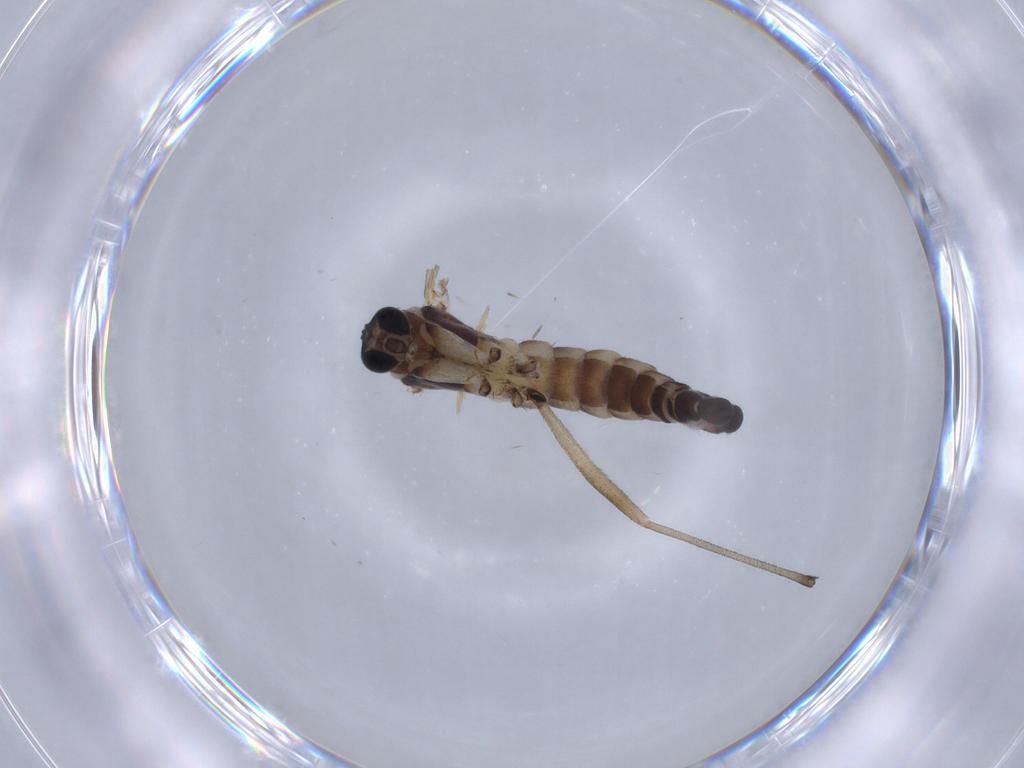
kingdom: Animalia
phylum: Arthropoda
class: Insecta
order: Diptera
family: Sciaridae
